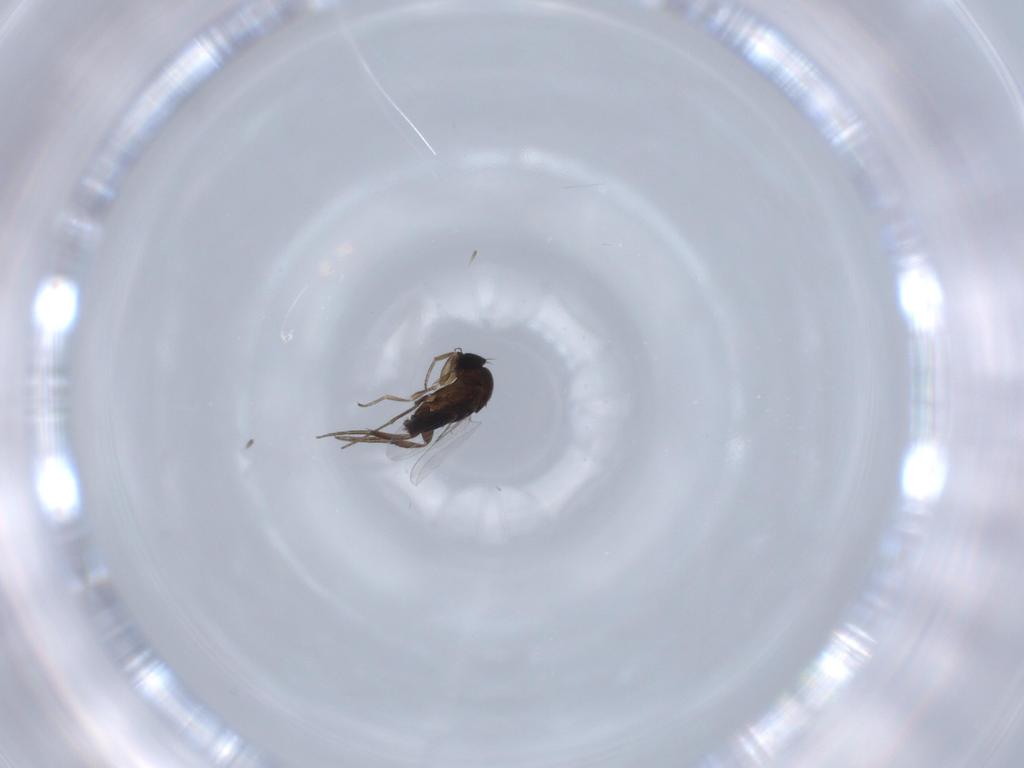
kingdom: Animalia
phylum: Arthropoda
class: Insecta
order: Diptera
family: Phoridae
